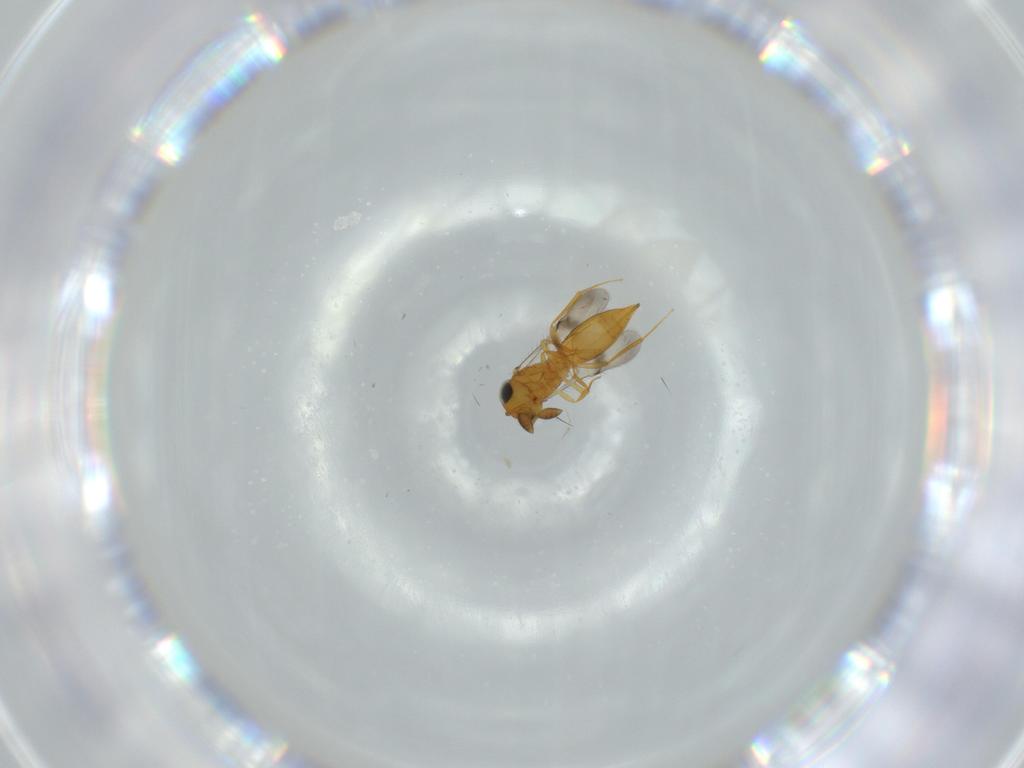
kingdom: Animalia
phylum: Arthropoda
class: Insecta
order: Hymenoptera
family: Scelionidae
